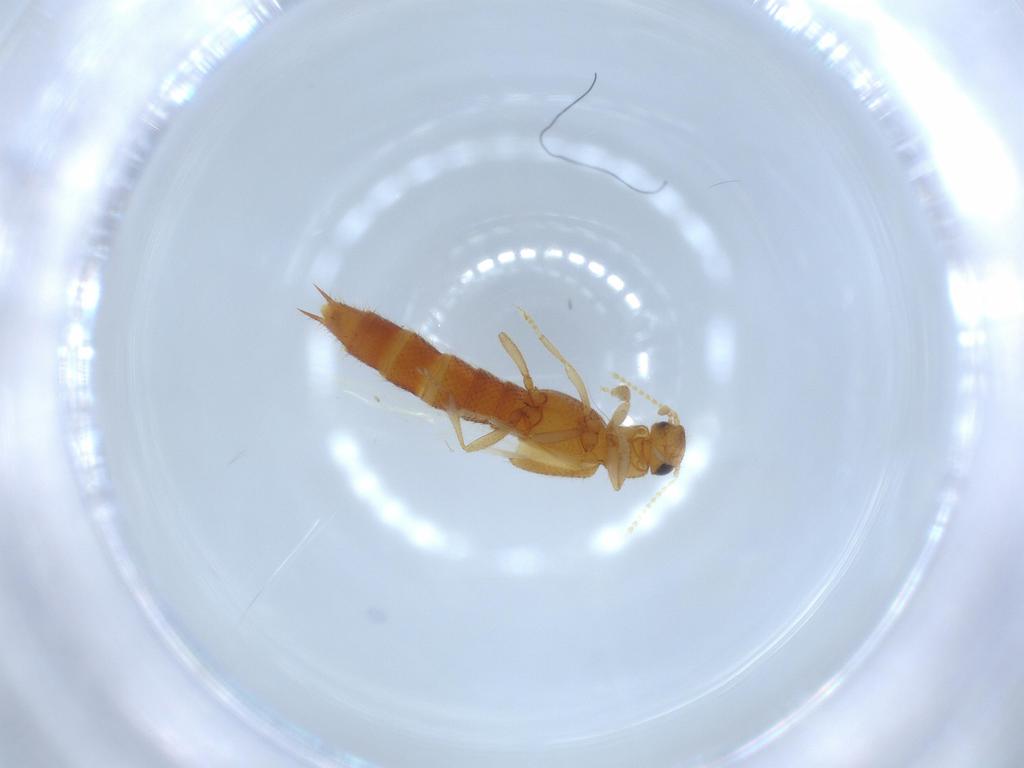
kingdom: Animalia
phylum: Arthropoda
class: Insecta
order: Coleoptera
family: Staphylinidae
